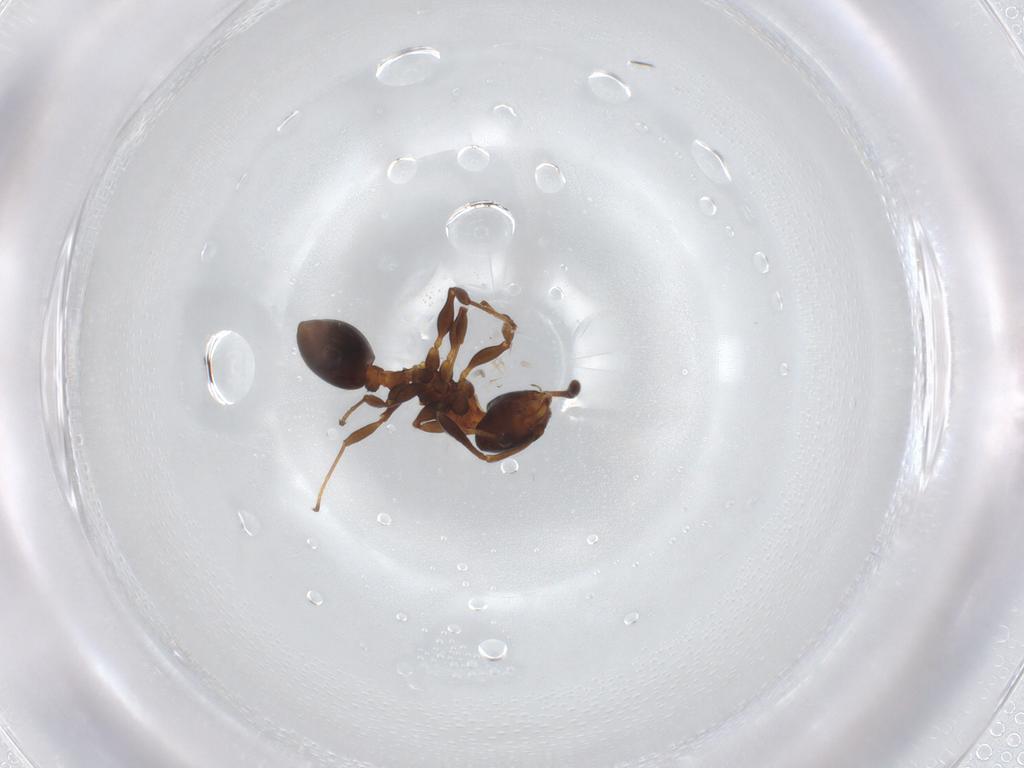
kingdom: Animalia
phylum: Arthropoda
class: Insecta
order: Hymenoptera
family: Formicidae
